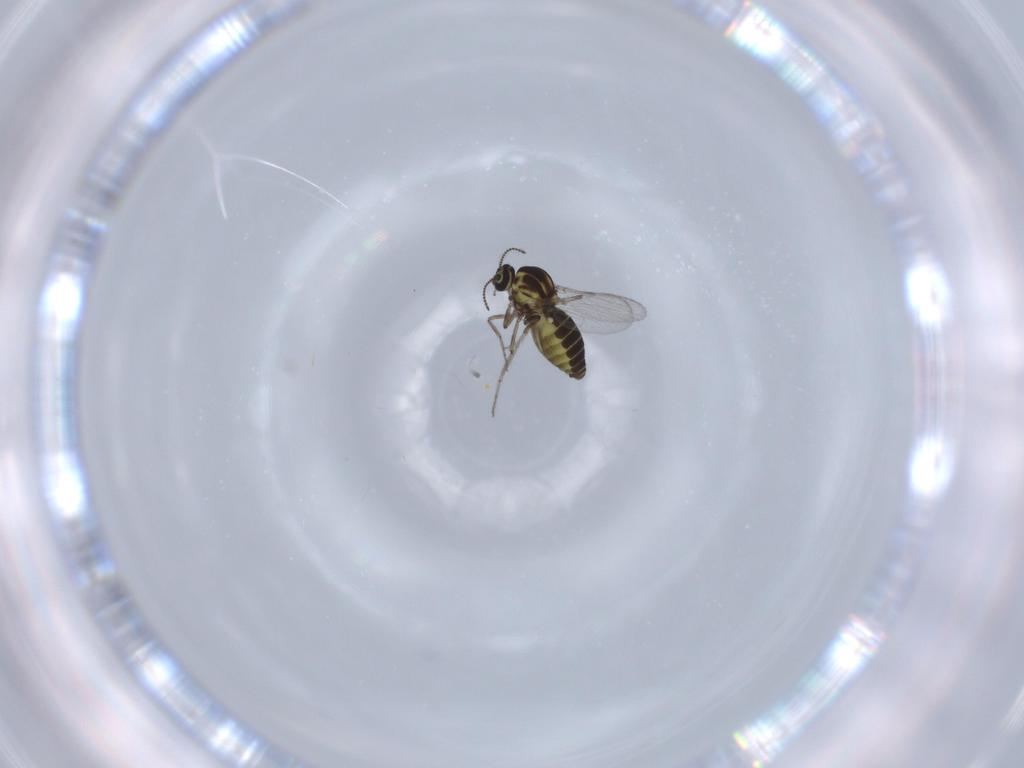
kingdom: Animalia
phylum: Arthropoda
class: Insecta
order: Diptera
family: Ceratopogonidae
